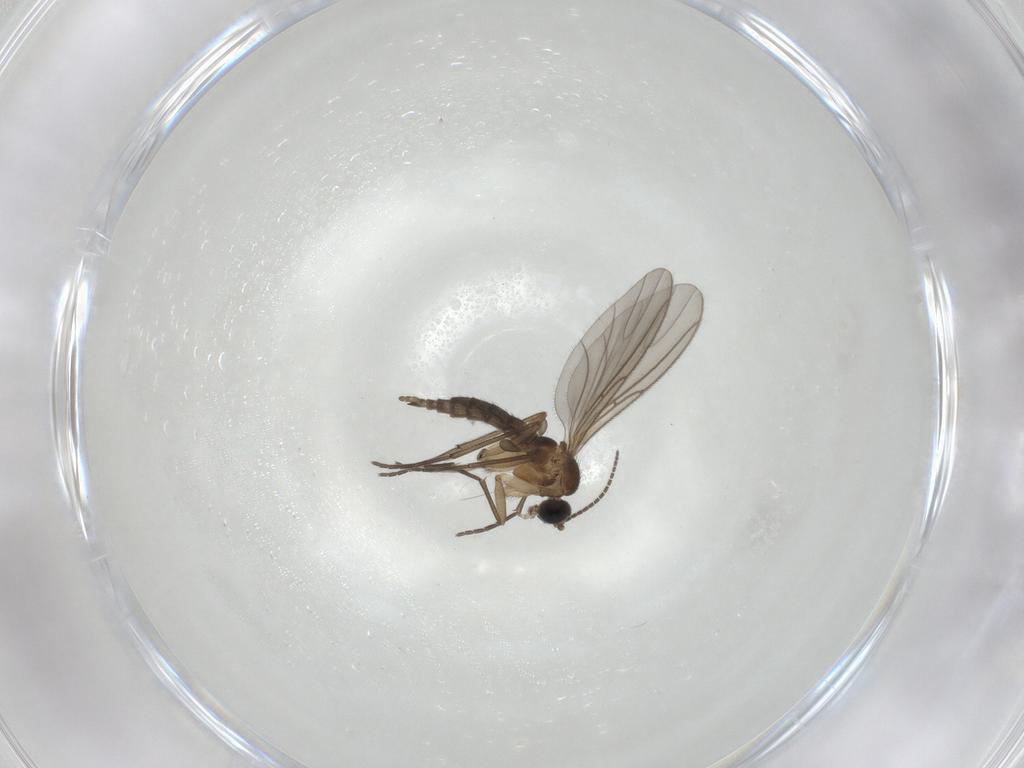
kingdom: Animalia
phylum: Arthropoda
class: Insecta
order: Diptera
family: Sciaridae
